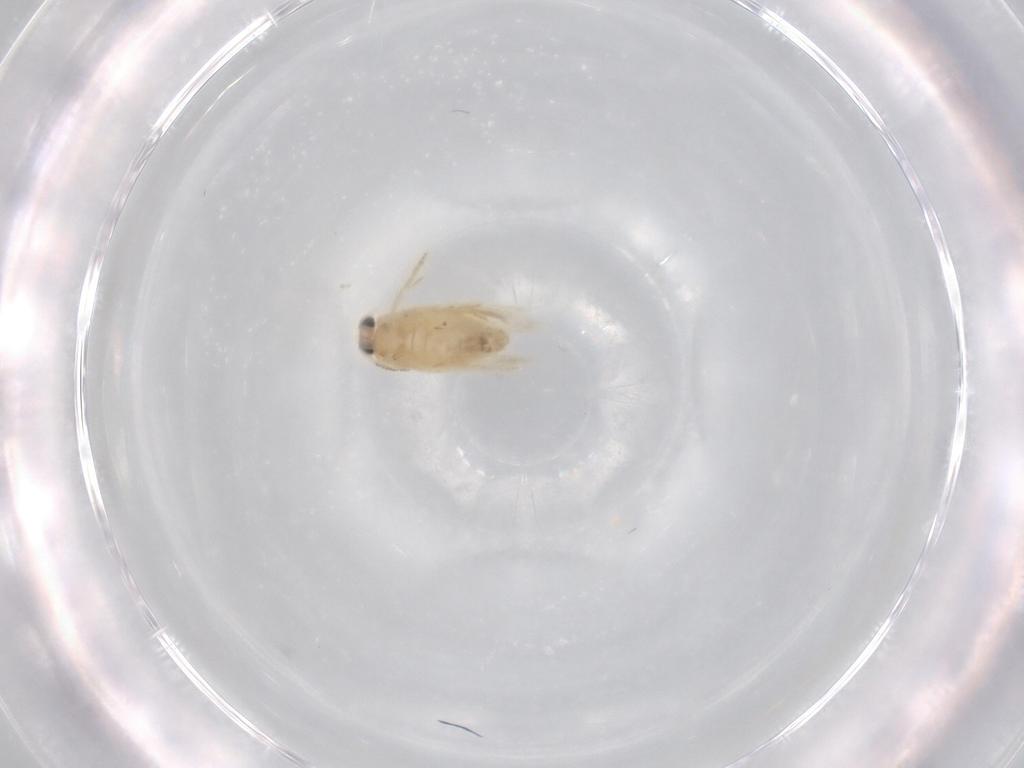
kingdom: Animalia
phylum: Arthropoda
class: Insecta
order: Lepidoptera
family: Nepticulidae
